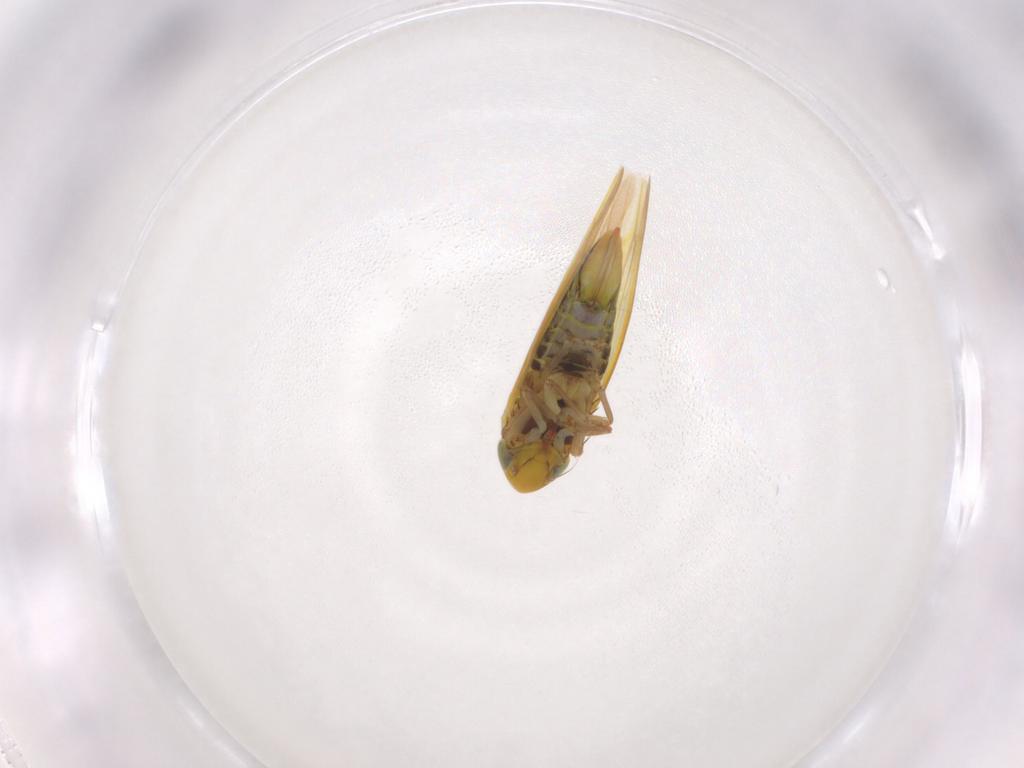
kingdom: Animalia
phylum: Arthropoda
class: Insecta
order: Hemiptera
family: Cicadellidae
